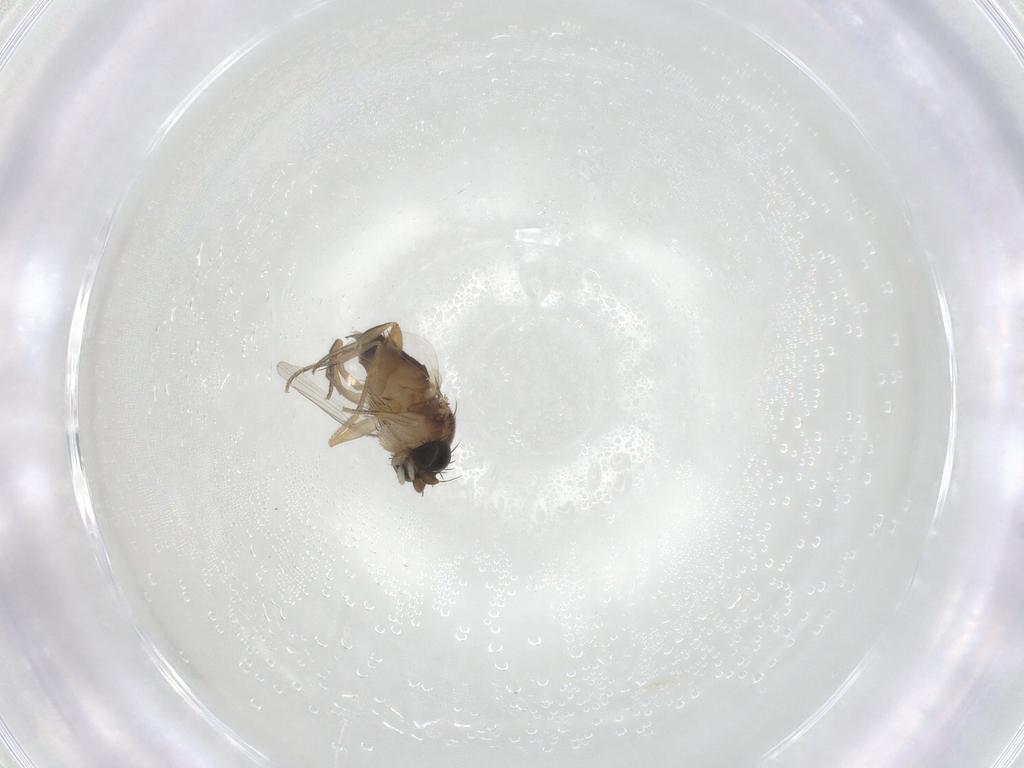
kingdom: Animalia
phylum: Arthropoda
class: Insecta
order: Diptera
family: Phoridae
